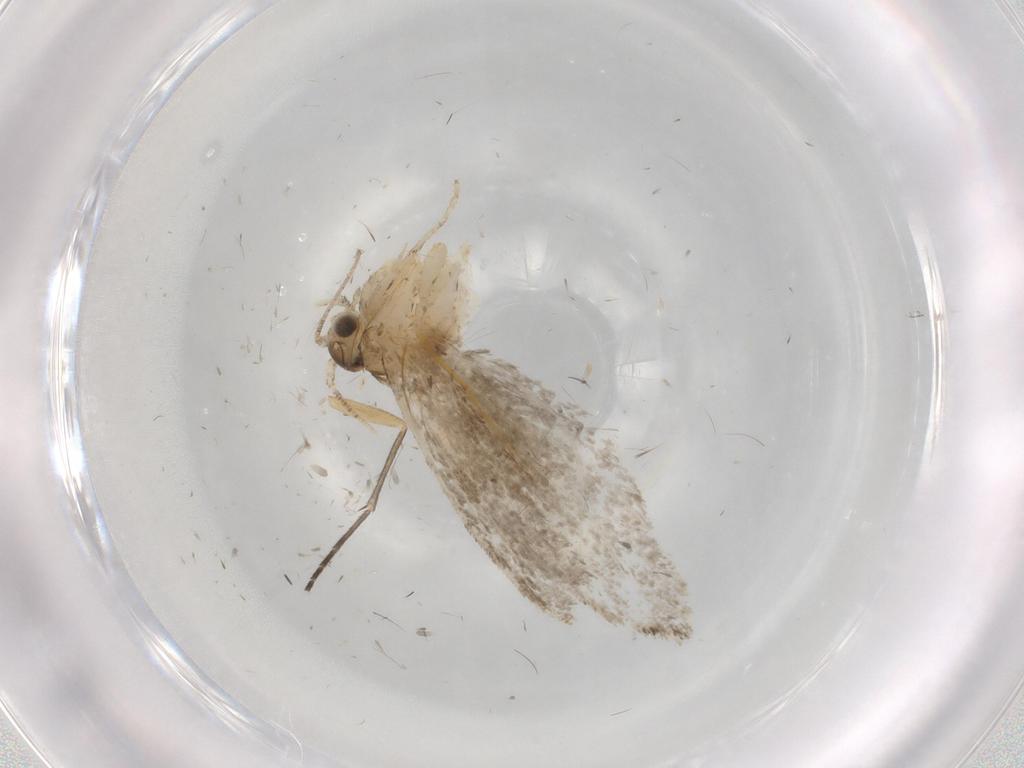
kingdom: Animalia
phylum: Arthropoda
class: Insecta
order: Lepidoptera
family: Tineidae
